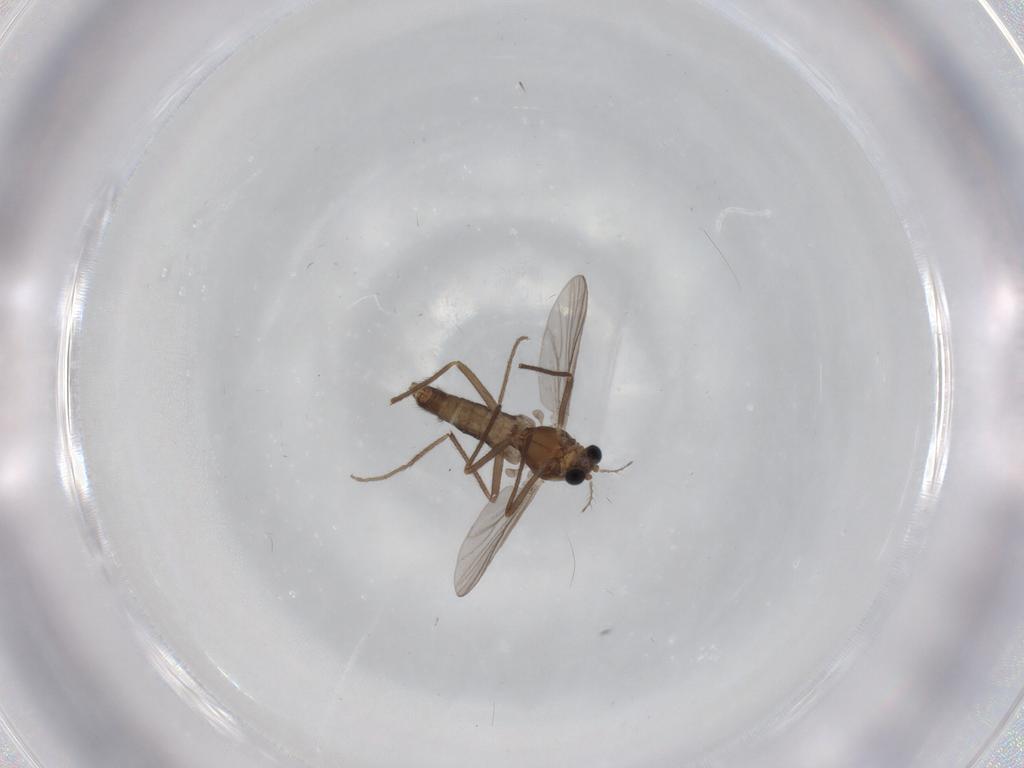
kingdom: Animalia
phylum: Arthropoda
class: Insecta
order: Diptera
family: Chironomidae
